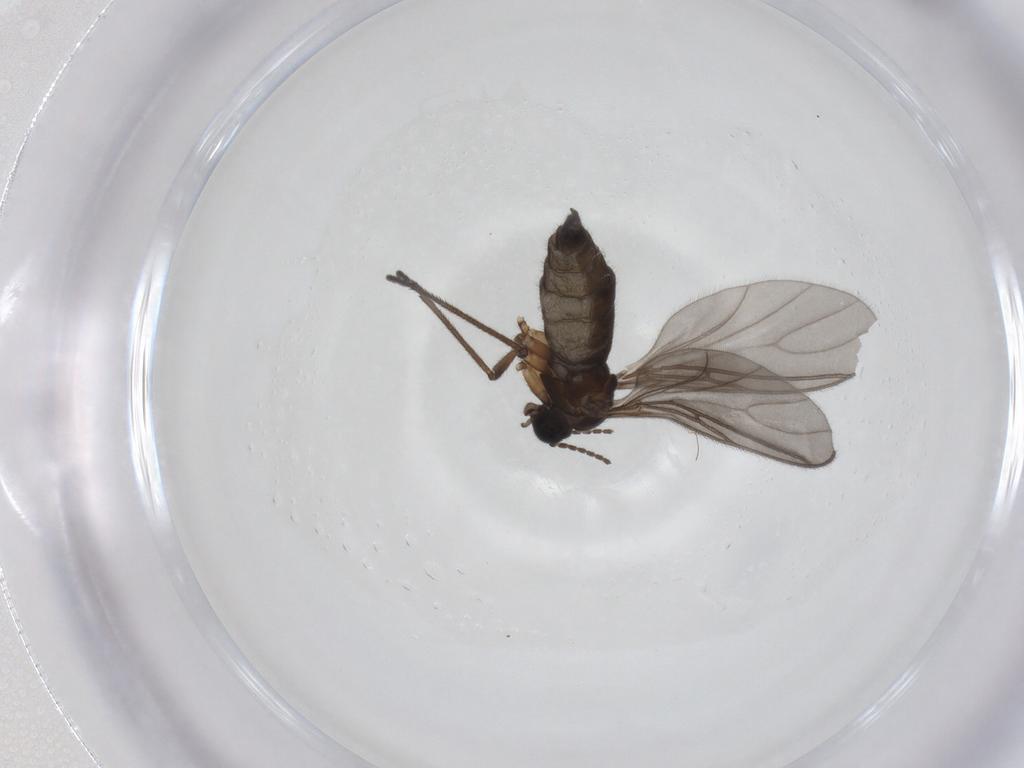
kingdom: Animalia
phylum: Arthropoda
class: Insecta
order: Diptera
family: Sciaridae
